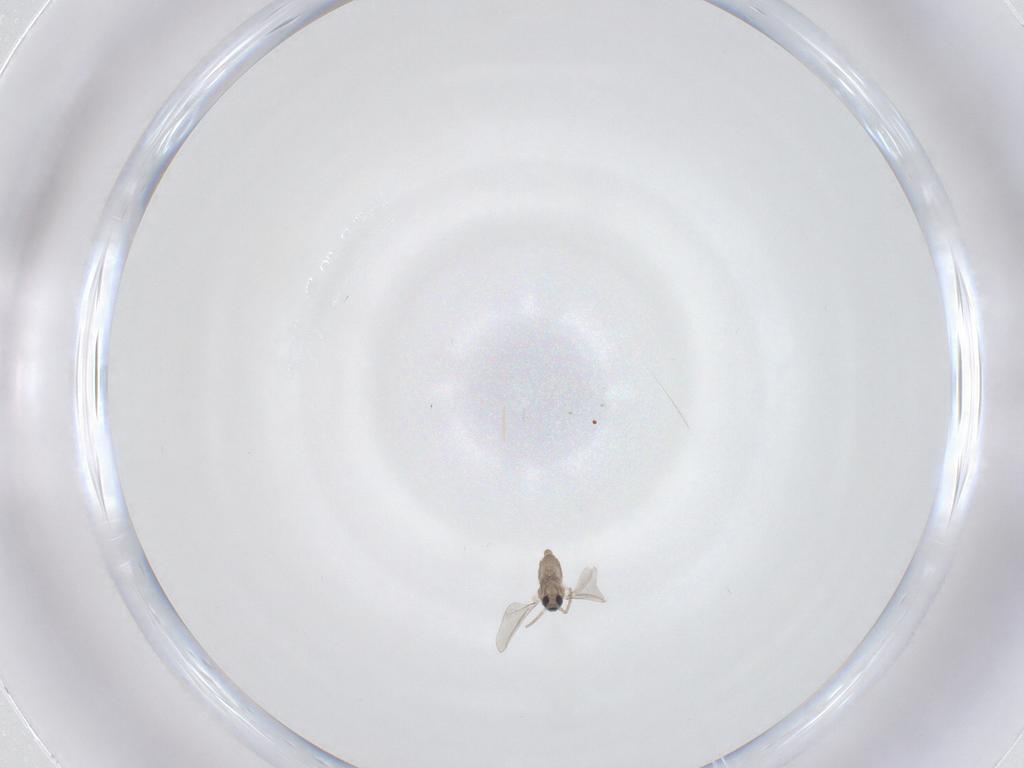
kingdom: Animalia
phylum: Arthropoda
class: Insecta
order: Diptera
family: Cecidomyiidae
